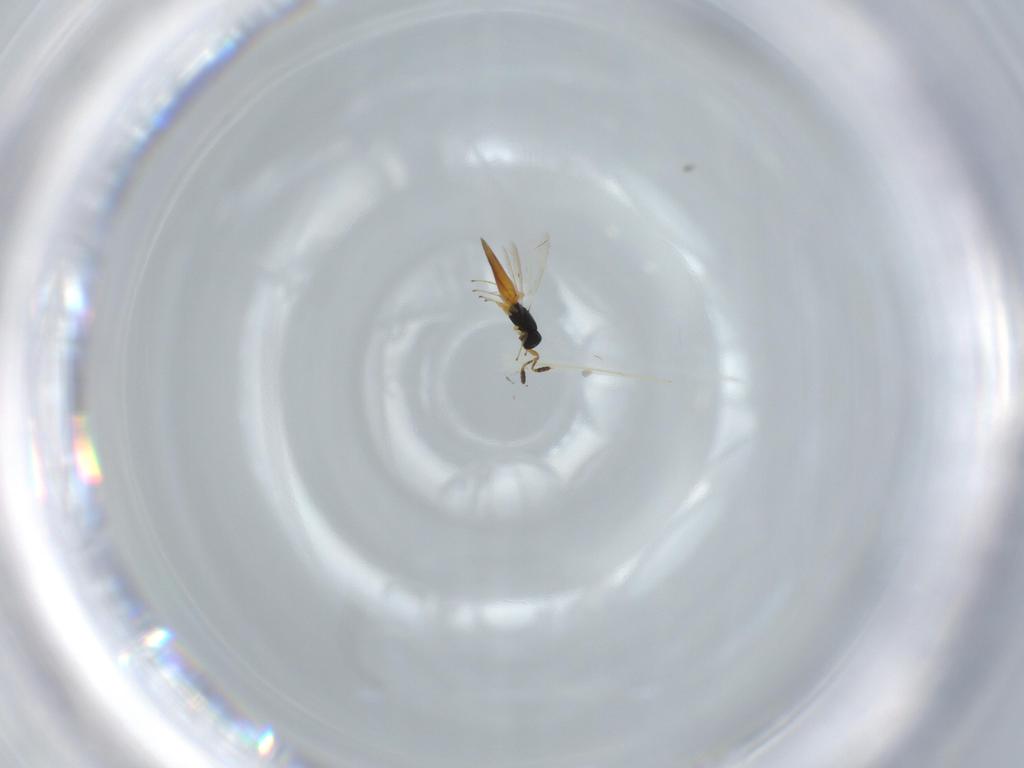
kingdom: Animalia
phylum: Arthropoda
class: Insecta
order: Hymenoptera
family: Scelionidae
